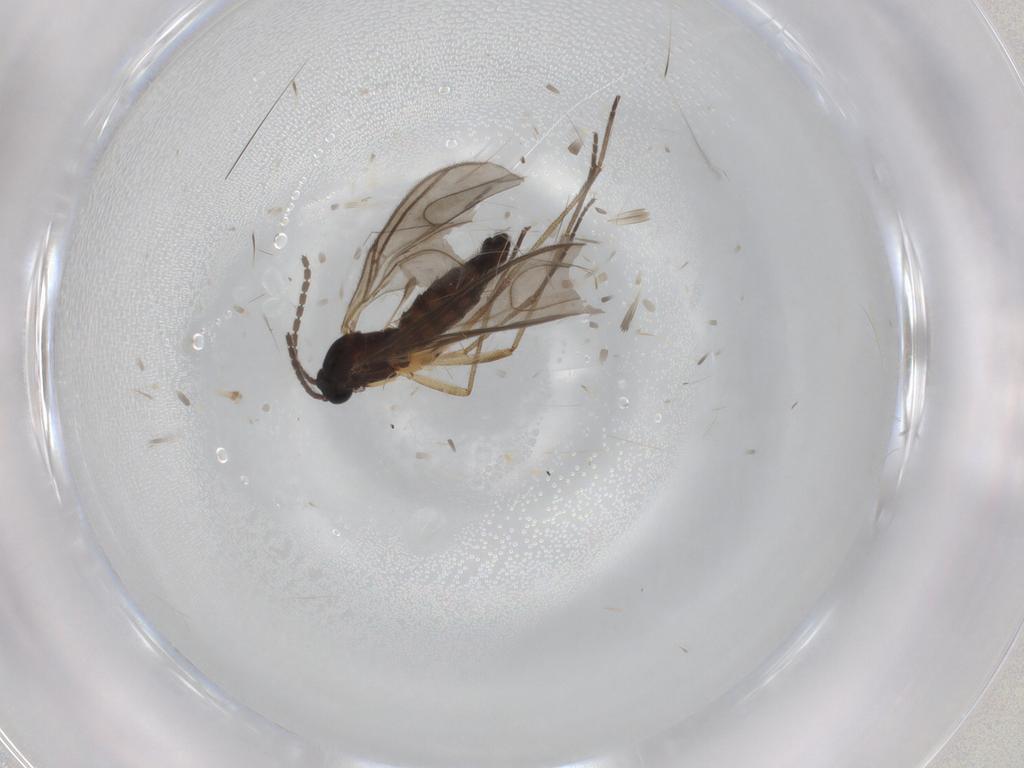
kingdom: Animalia
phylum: Arthropoda
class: Insecta
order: Diptera
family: Sciaridae
